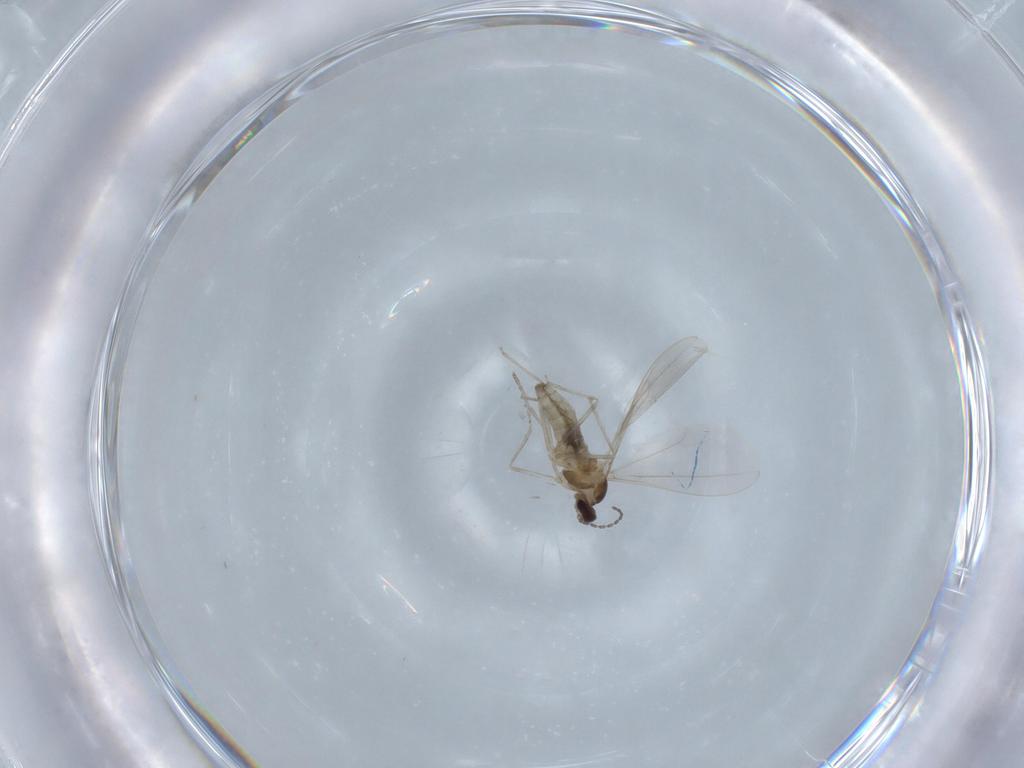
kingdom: Animalia
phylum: Arthropoda
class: Insecta
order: Diptera
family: Cecidomyiidae
